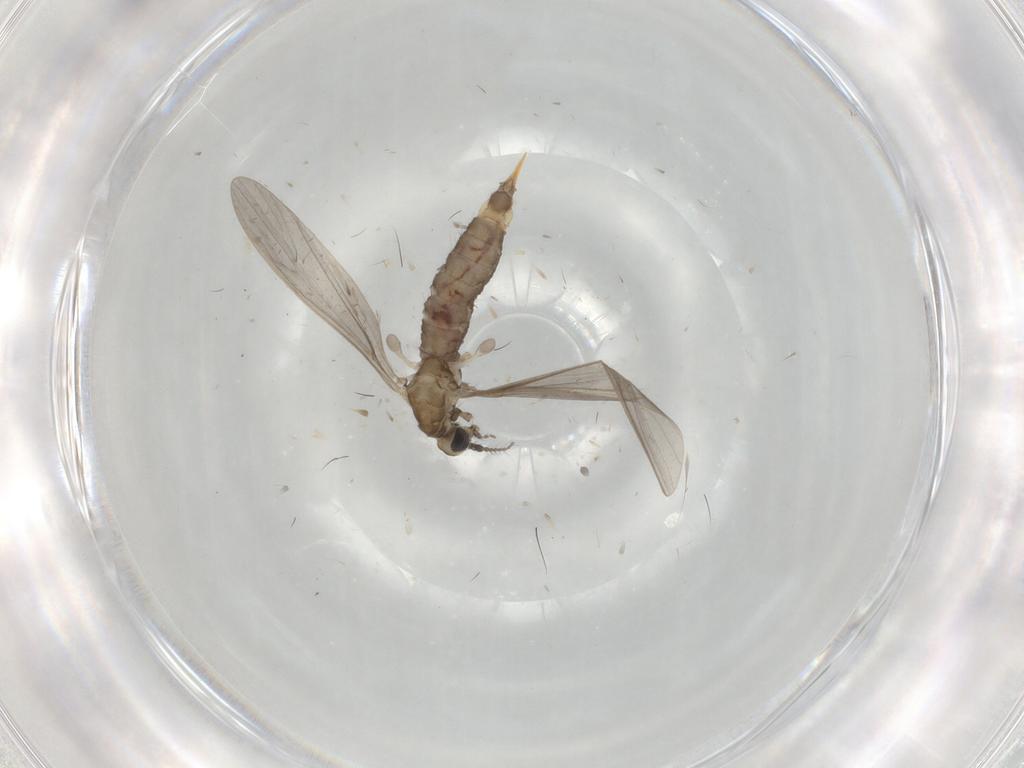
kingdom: Animalia
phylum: Arthropoda
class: Insecta
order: Diptera
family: Limoniidae
